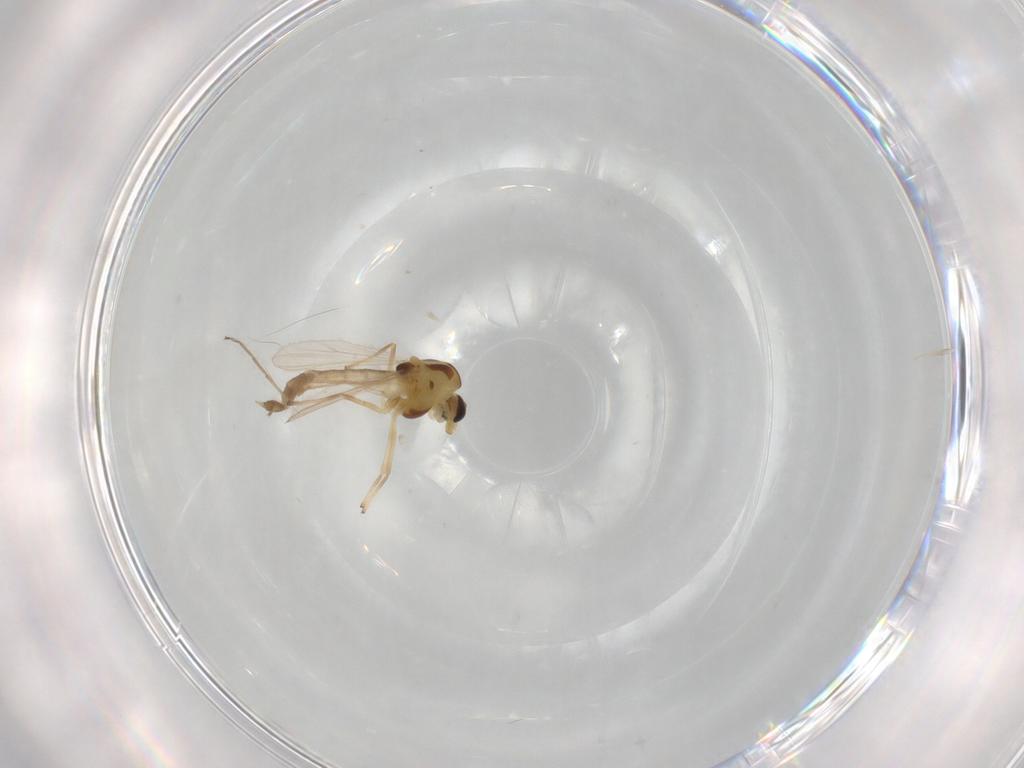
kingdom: Animalia
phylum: Arthropoda
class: Insecta
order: Diptera
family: Chironomidae
